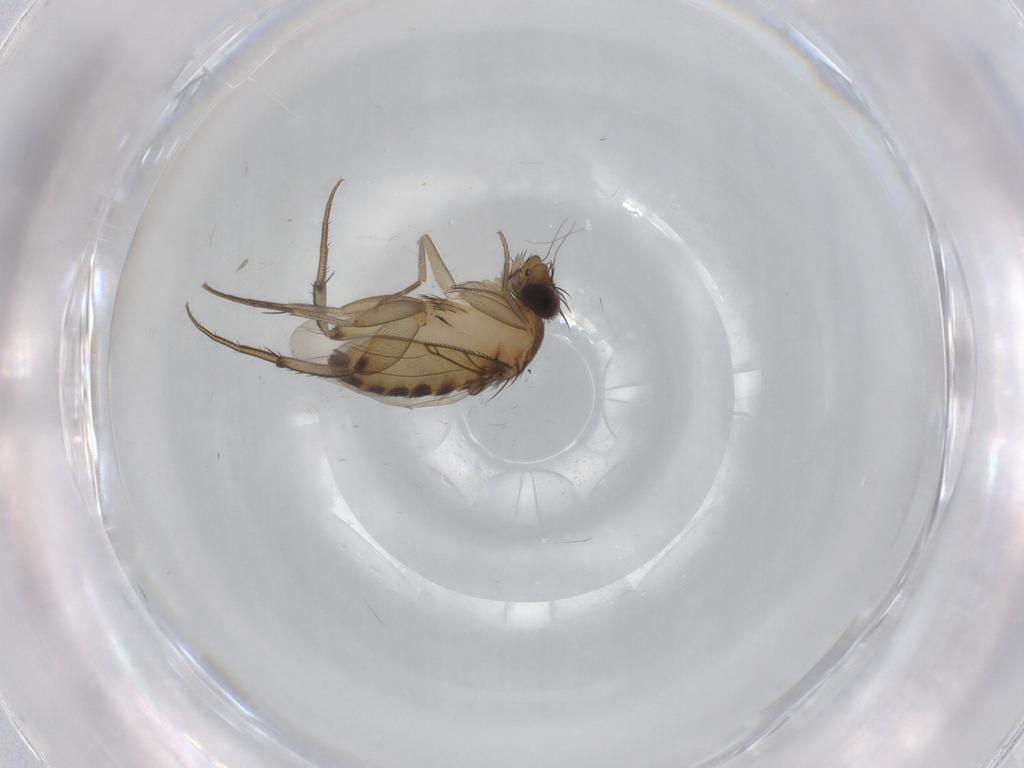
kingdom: Animalia
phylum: Arthropoda
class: Insecta
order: Diptera
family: Phoridae
